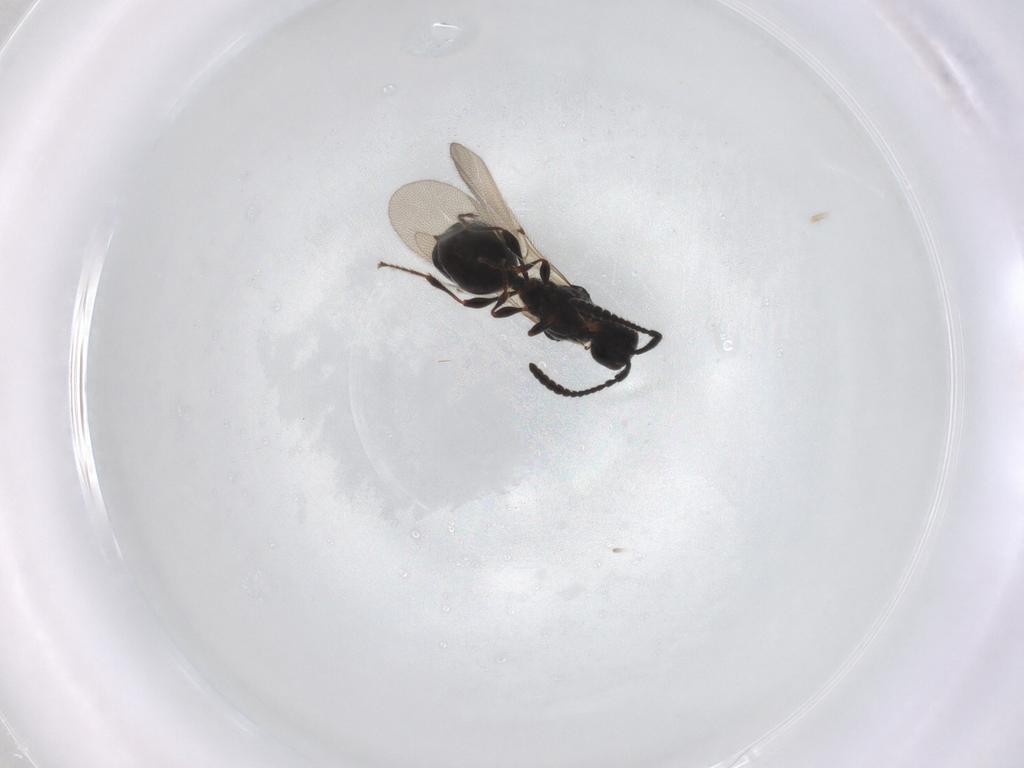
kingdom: Animalia
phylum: Arthropoda
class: Insecta
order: Hymenoptera
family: Diapriidae
